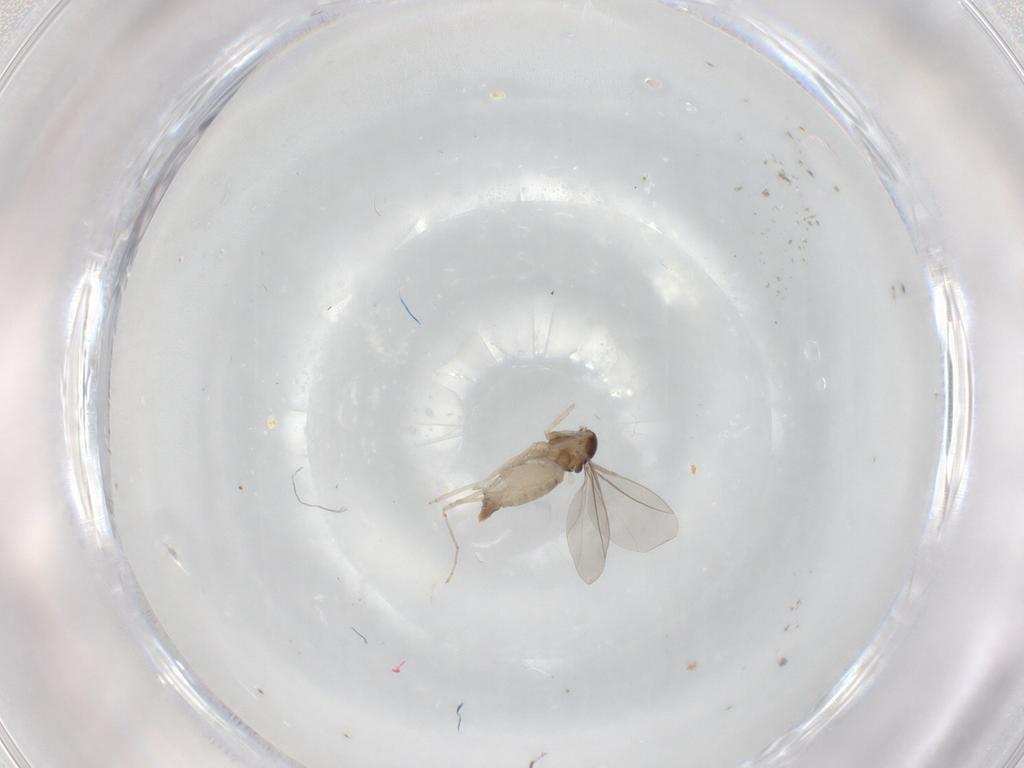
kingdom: Animalia
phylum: Arthropoda
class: Insecta
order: Diptera
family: Cecidomyiidae
